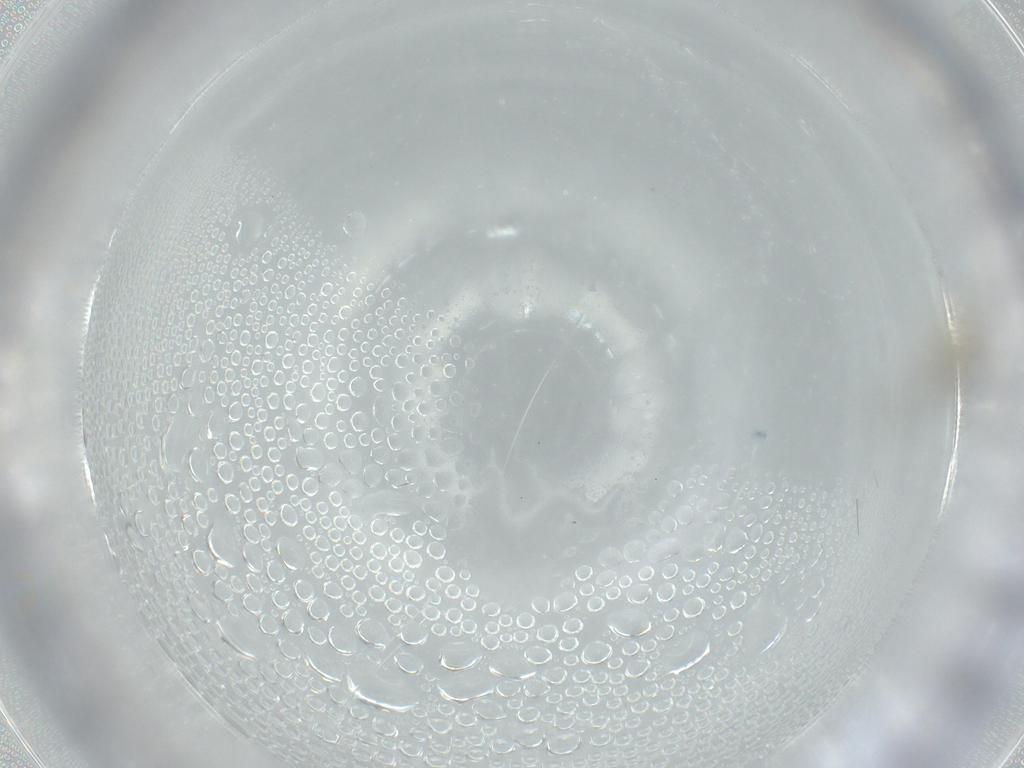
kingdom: Animalia
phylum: Arthropoda
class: Insecta
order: Diptera
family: Cecidomyiidae
